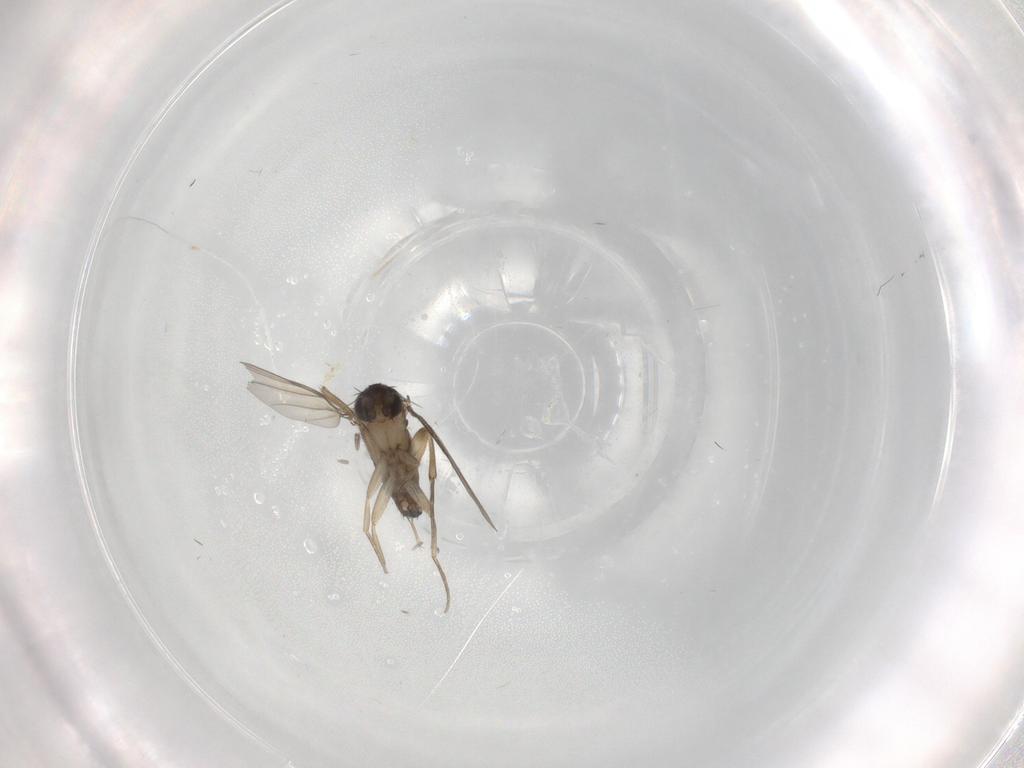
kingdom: Animalia
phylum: Arthropoda
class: Insecta
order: Diptera
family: Phoridae
